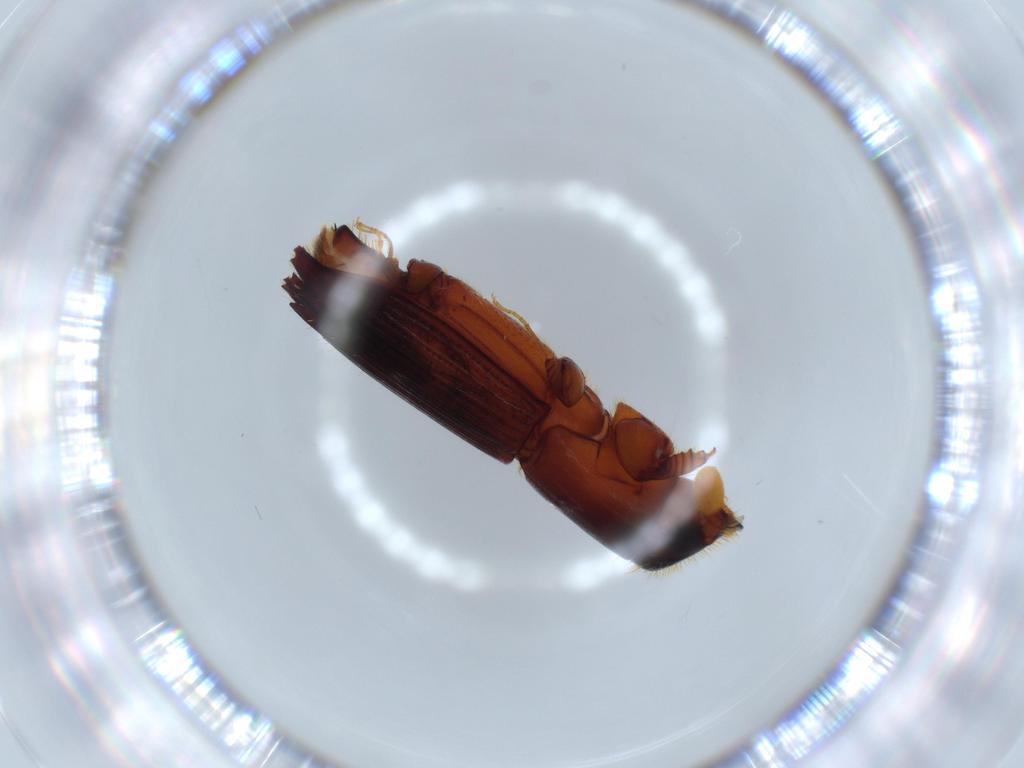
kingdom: Animalia
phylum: Arthropoda
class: Insecta
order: Coleoptera
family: Curculionidae
